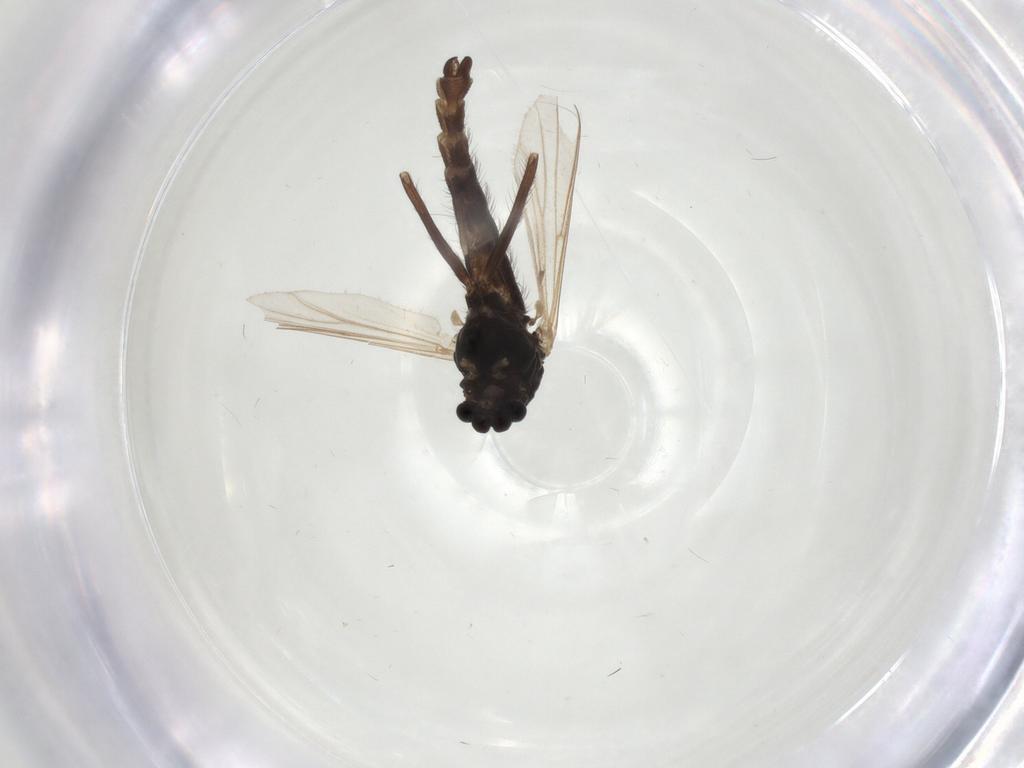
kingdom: Animalia
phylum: Arthropoda
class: Insecta
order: Diptera
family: Chironomidae
